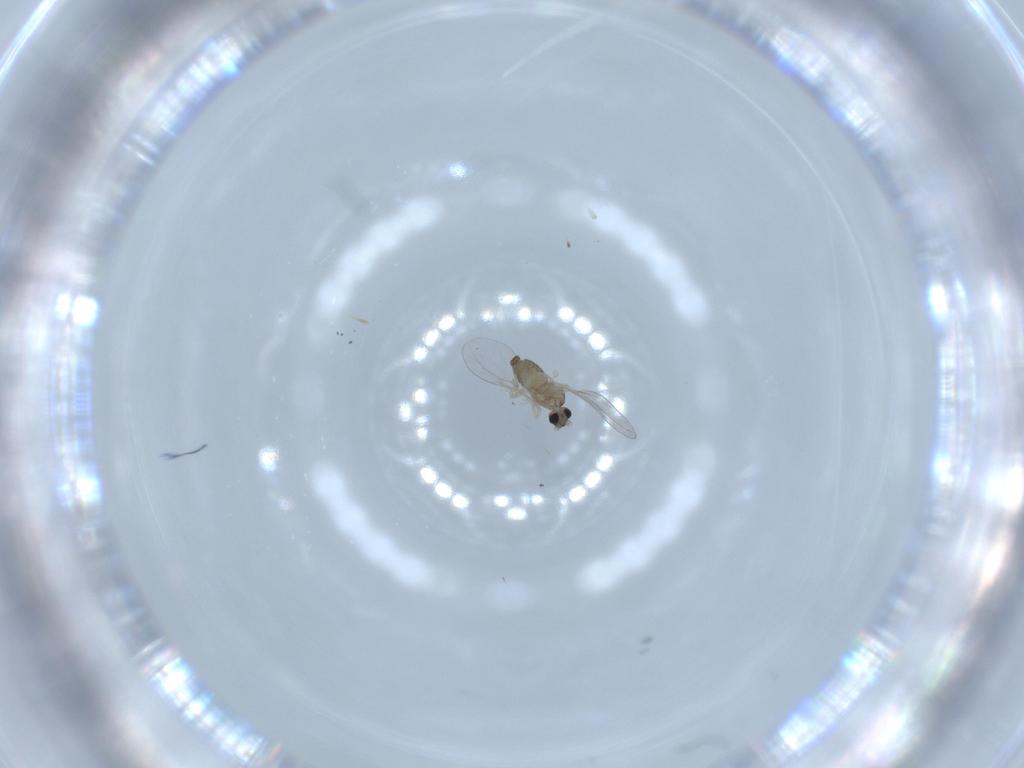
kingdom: Animalia
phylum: Arthropoda
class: Insecta
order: Diptera
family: Cecidomyiidae
